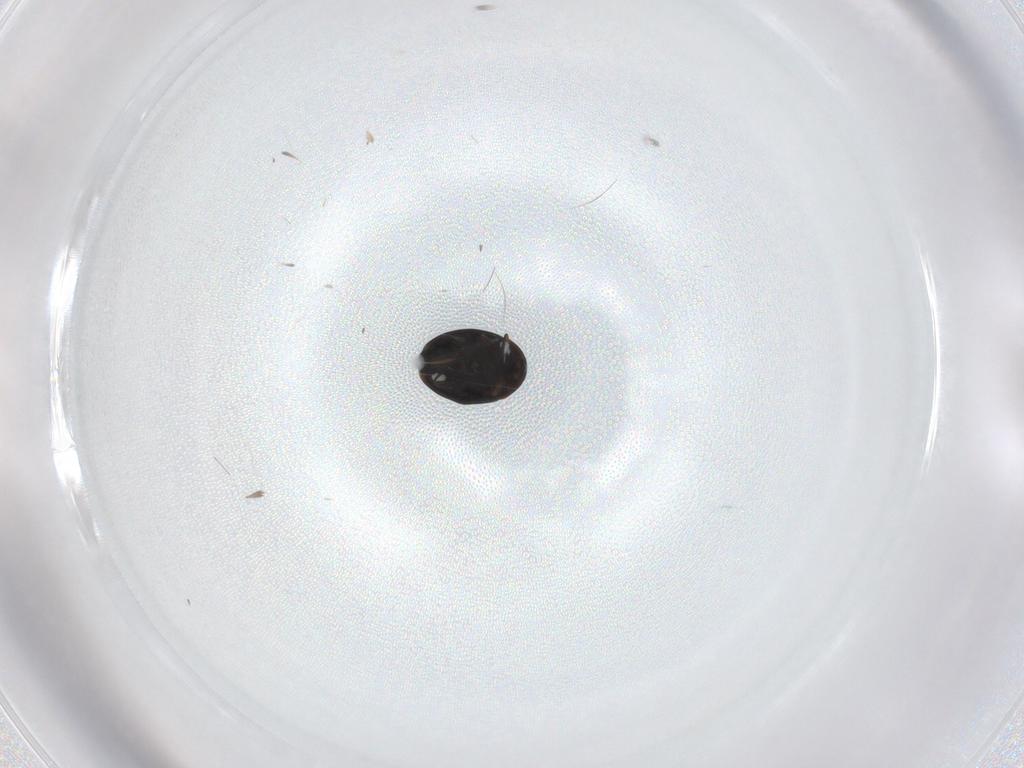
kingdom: Animalia
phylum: Arthropoda
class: Insecta
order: Coleoptera
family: Corylophidae
